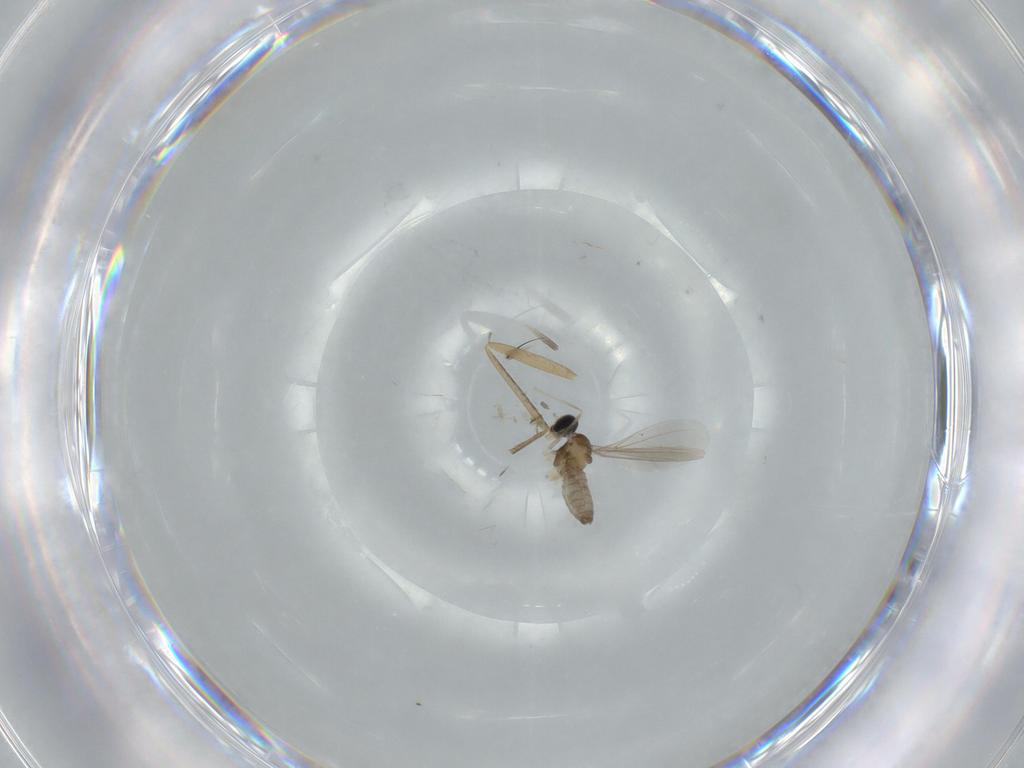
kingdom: Animalia
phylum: Arthropoda
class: Insecta
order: Diptera
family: Cecidomyiidae
